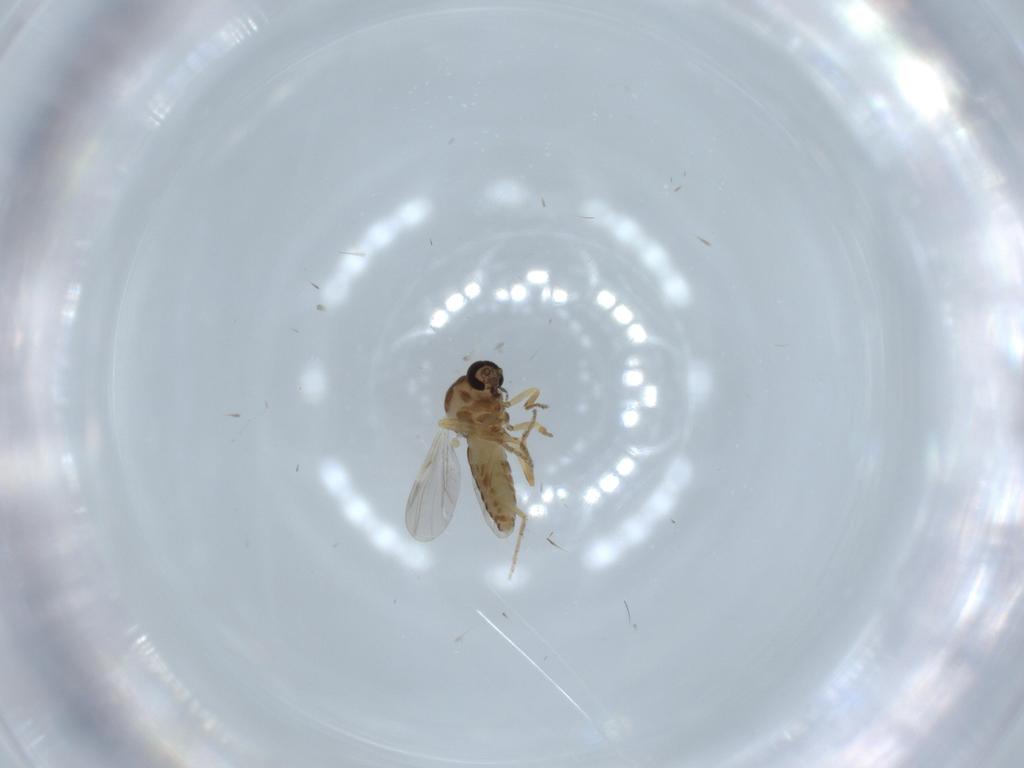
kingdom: Animalia
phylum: Arthropoda
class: Insecta
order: Diptera
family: Ceratopogonidae
